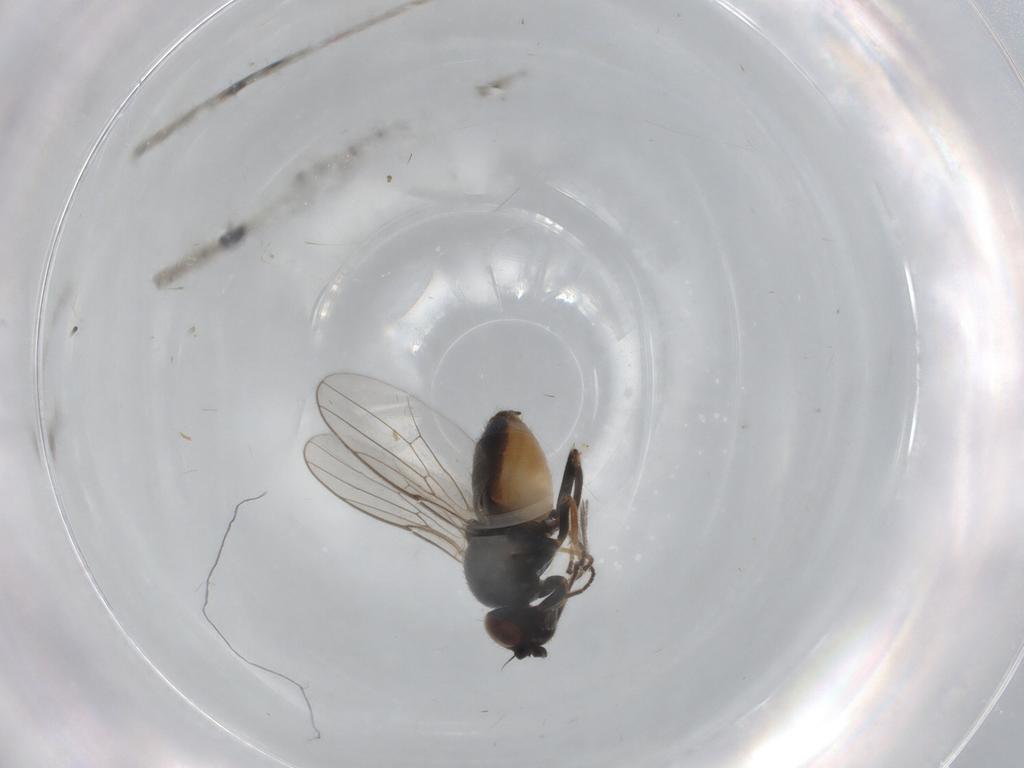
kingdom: Animalia
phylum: Arthropoda
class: Insecta
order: Diptera
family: Chloropidae
